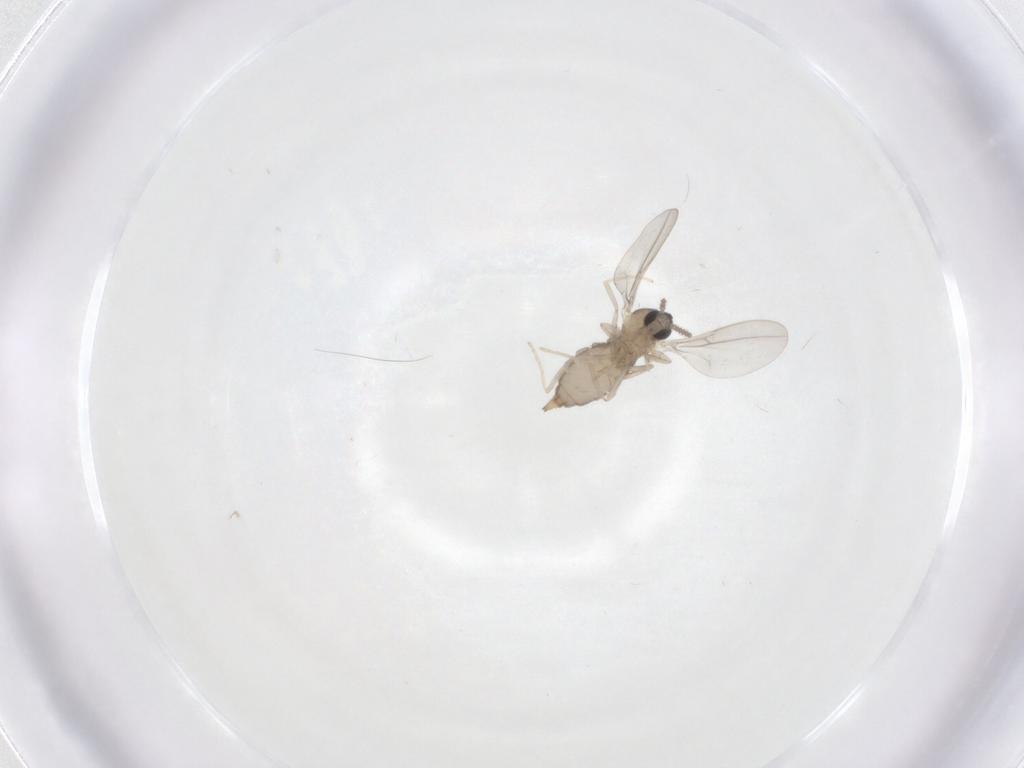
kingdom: Animalia
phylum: Arthropoda
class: Insecta
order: Diptera
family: Cecidomyiidae
